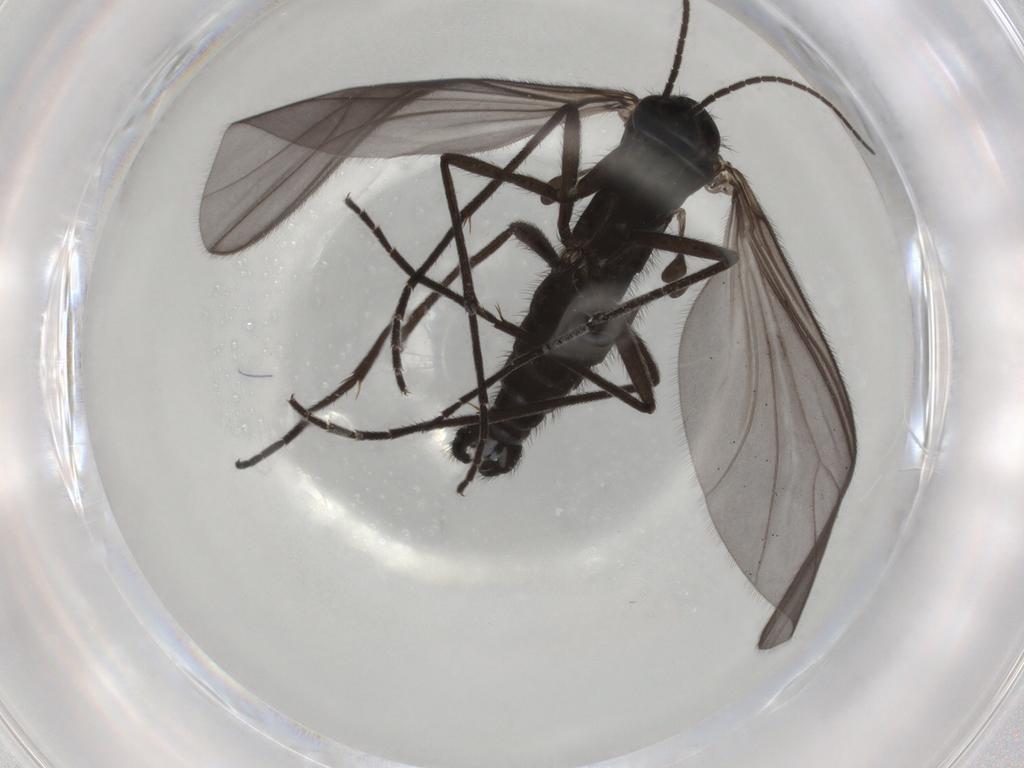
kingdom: Animalia
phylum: Arthropoda
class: Insecta
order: Diptera
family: Sciaridae
